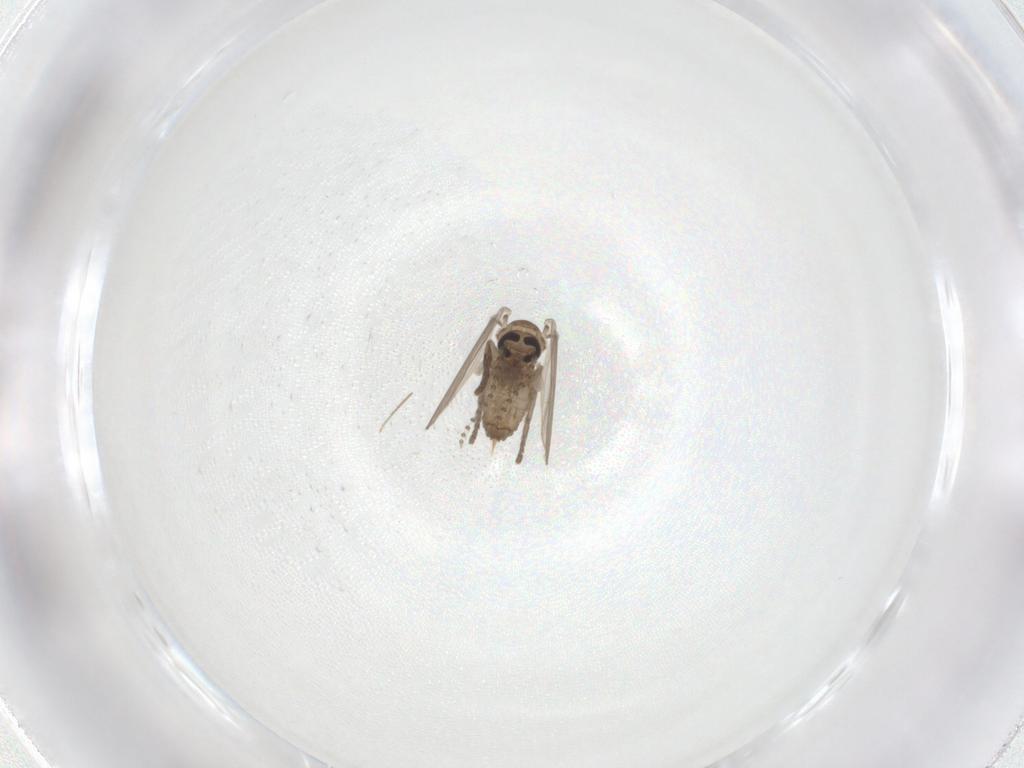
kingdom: Animalia
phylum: Arthropoda
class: Insecta
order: Diptera
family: Psychodidae
